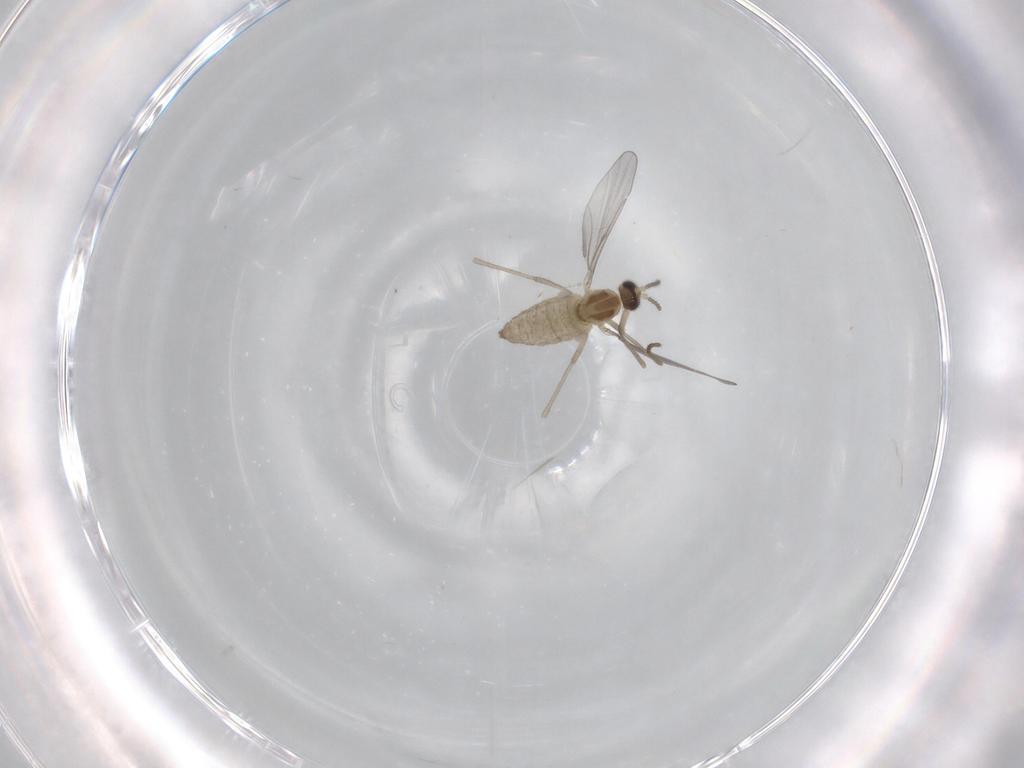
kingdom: Animalia
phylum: Arthropoda
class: Insecta
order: Diptera
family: Cecidomyiidae
